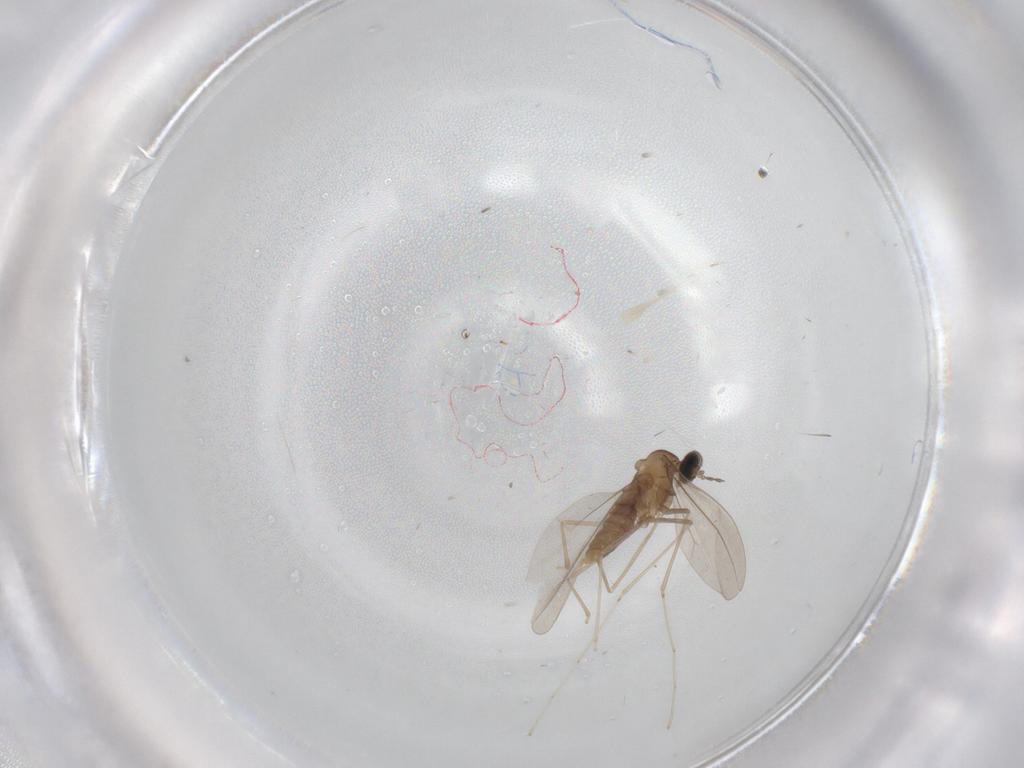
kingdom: Animalia
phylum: Arthropoda
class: Insecta
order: Diptera
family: Cecidomyiidae
